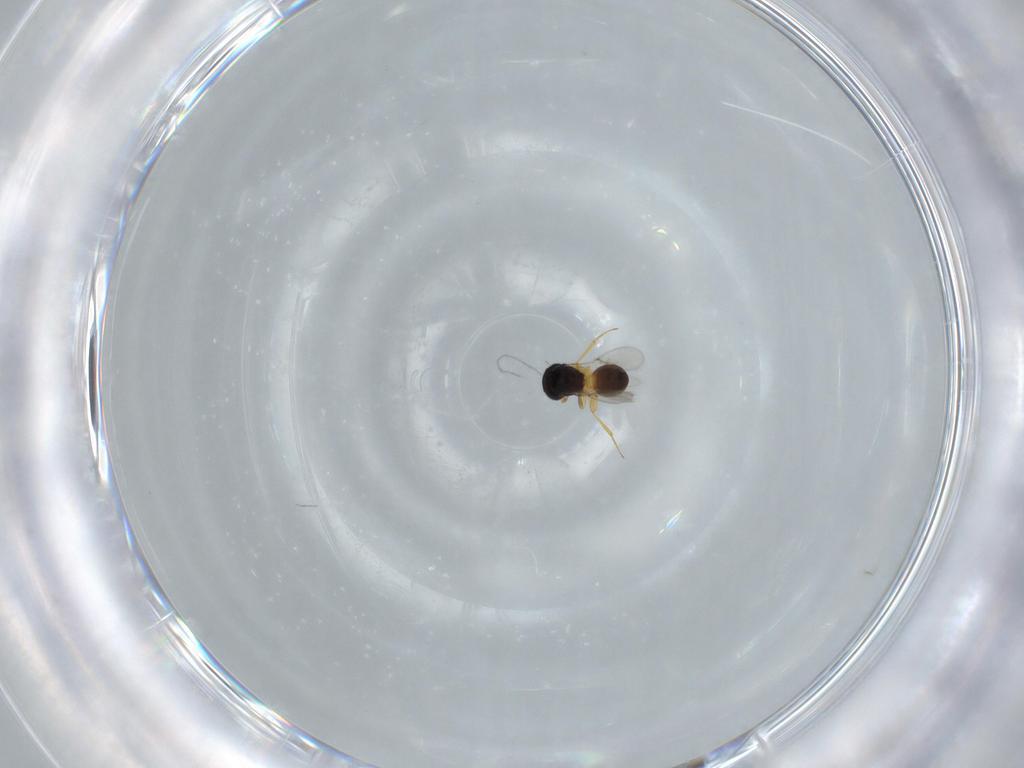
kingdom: Animalia
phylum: Arthropoda
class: Insecta
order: Hymenoptera
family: Scelionidae
